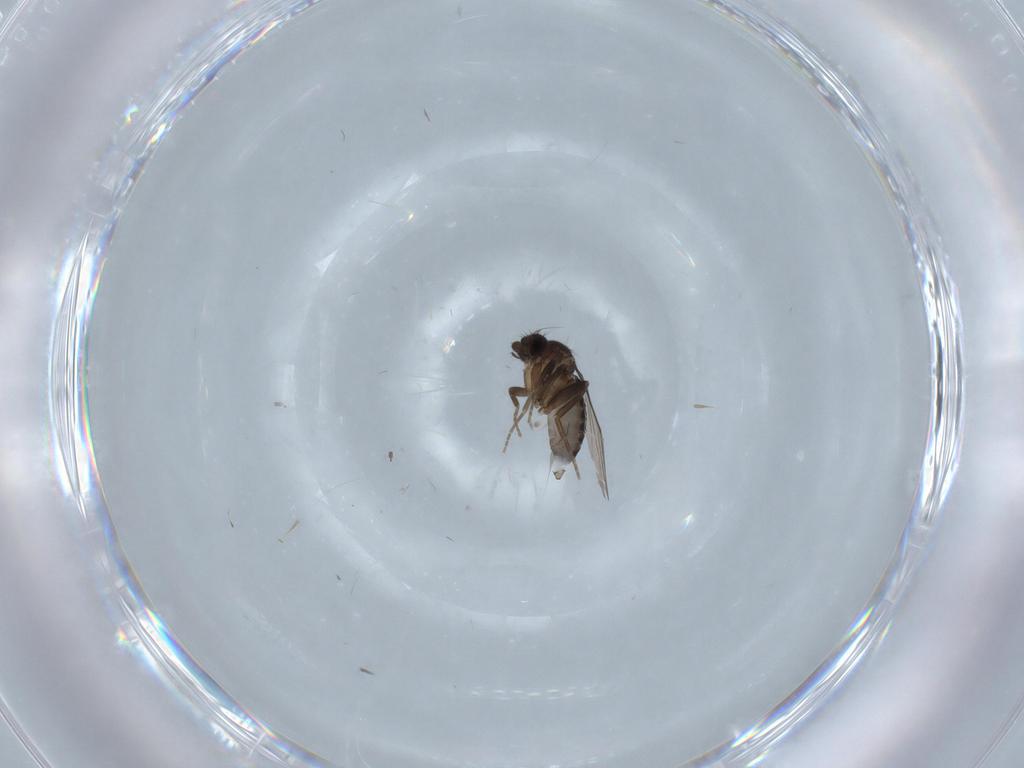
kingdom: Animalia
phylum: Arthropoda
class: Insecta
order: Diptera
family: Phoridae
